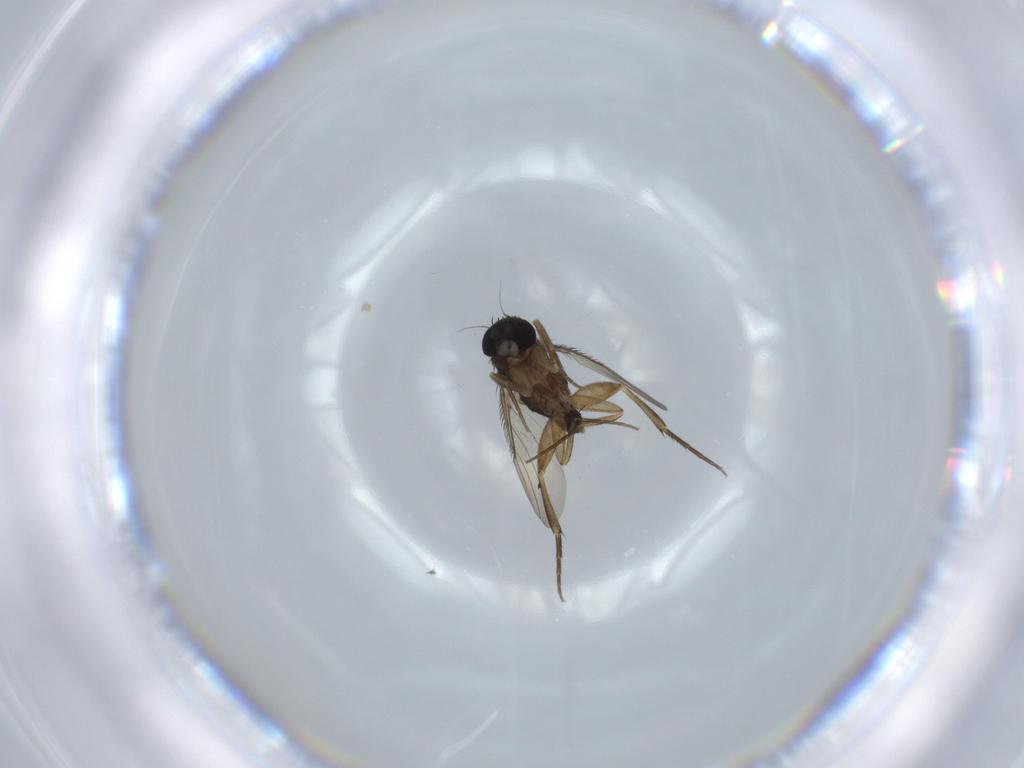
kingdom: Animalia
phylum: Arthropoda
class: Insecta
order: Diptera
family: Phoridae
